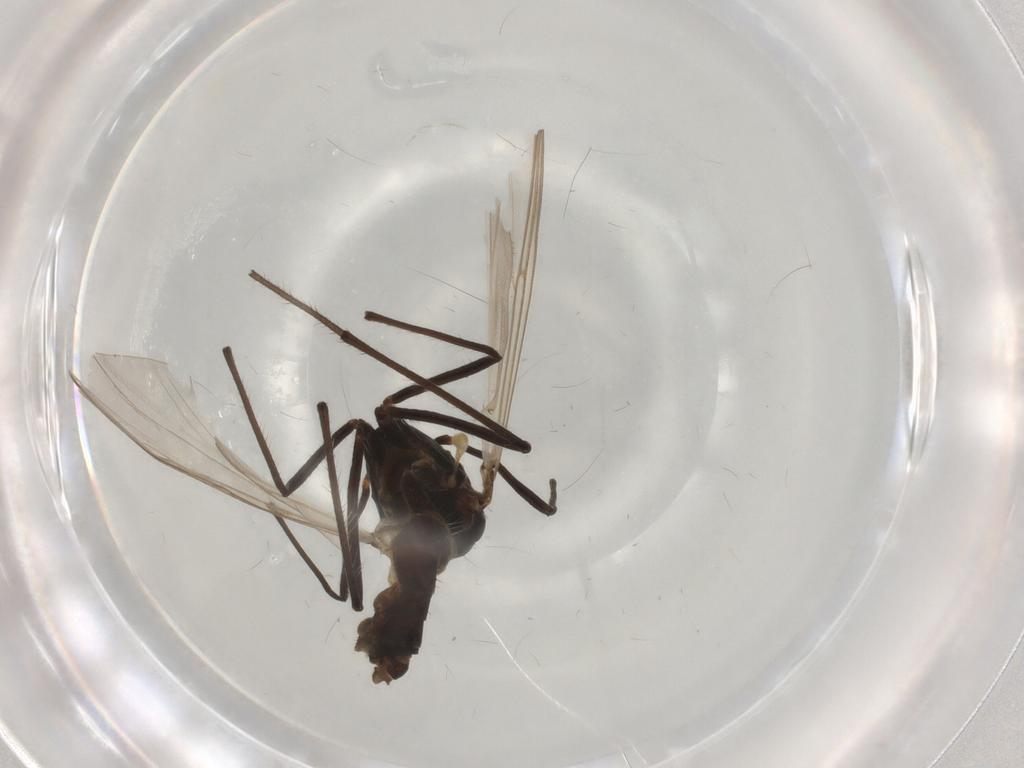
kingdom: Animalia
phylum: Arthropoda
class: Insecta
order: Diptera
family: Chironomidae
